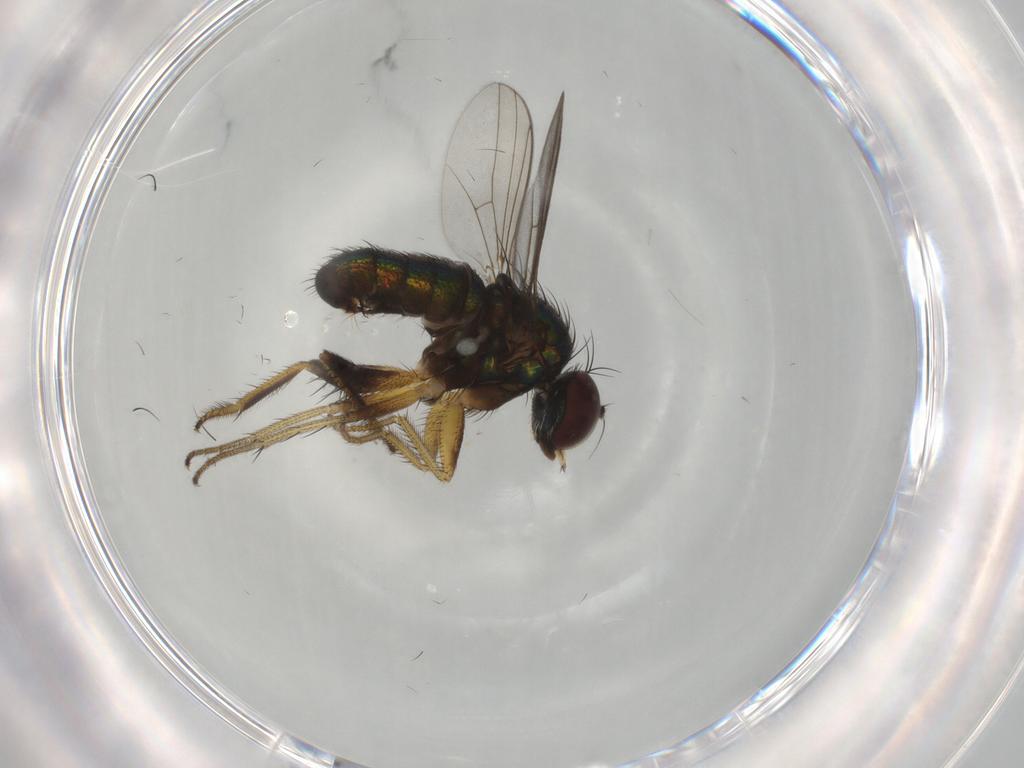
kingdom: Animalia
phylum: Arthropoda
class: Insecta
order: Diptera
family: Dolichopodidae
